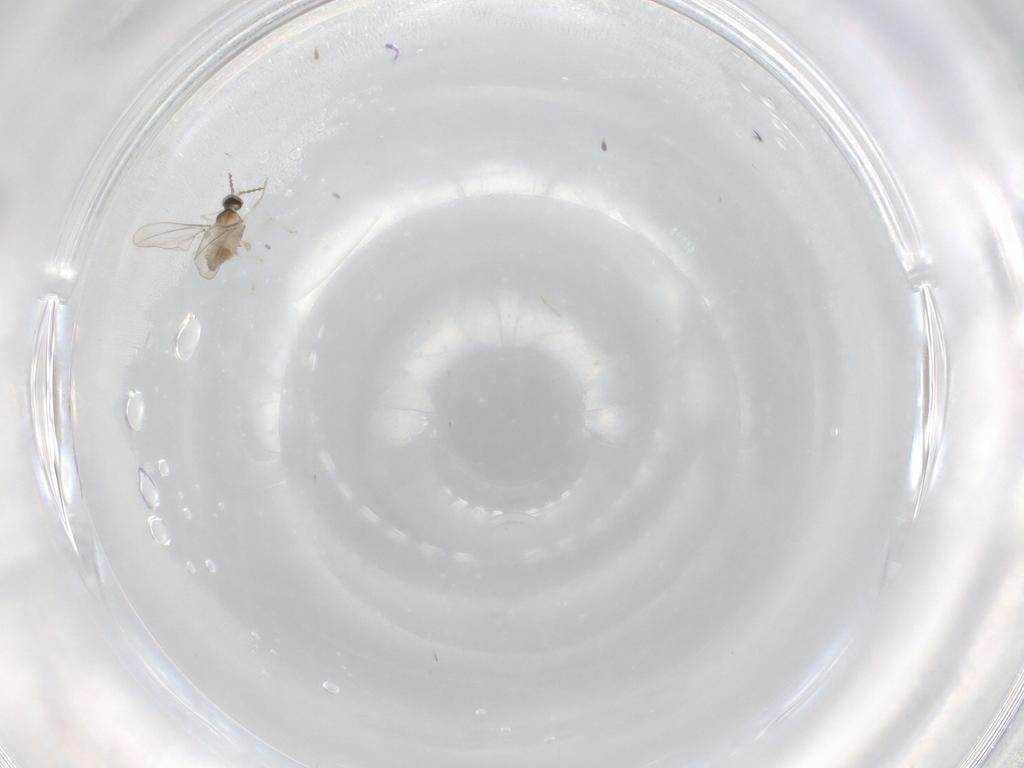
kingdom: Animalia
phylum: Arthropoda
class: Insecta
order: Diptera
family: Cecidomyiidae
